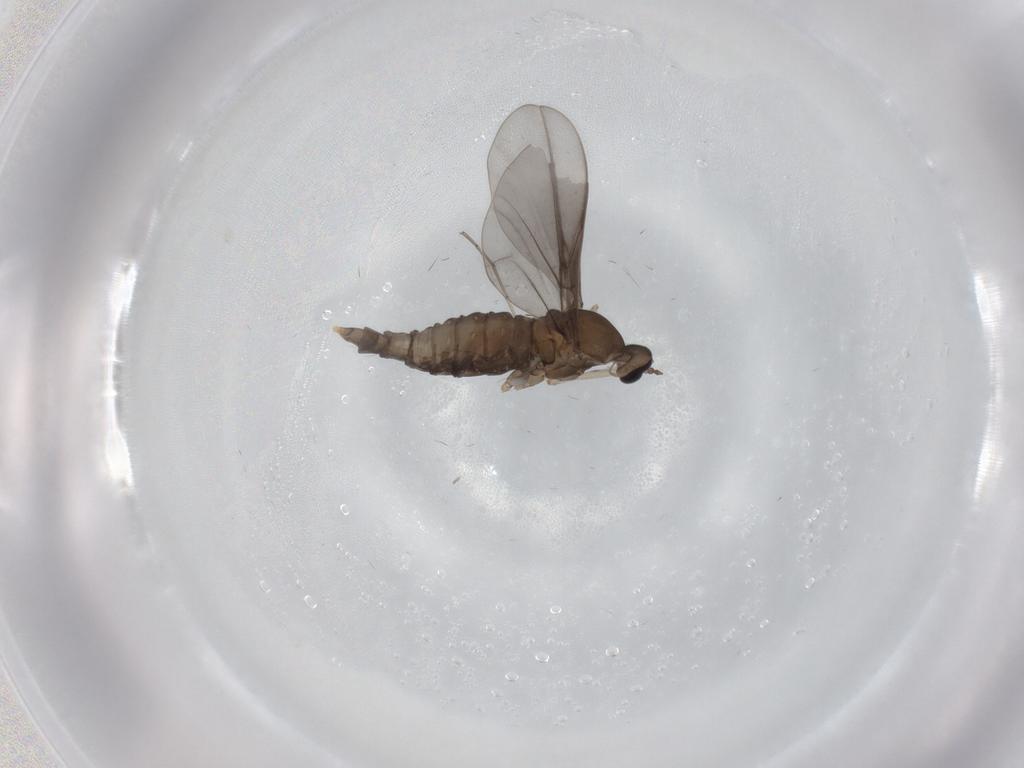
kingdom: Animalia
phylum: Arthropoda
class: Insecta
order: Diptera
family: Cecidomyiidae
